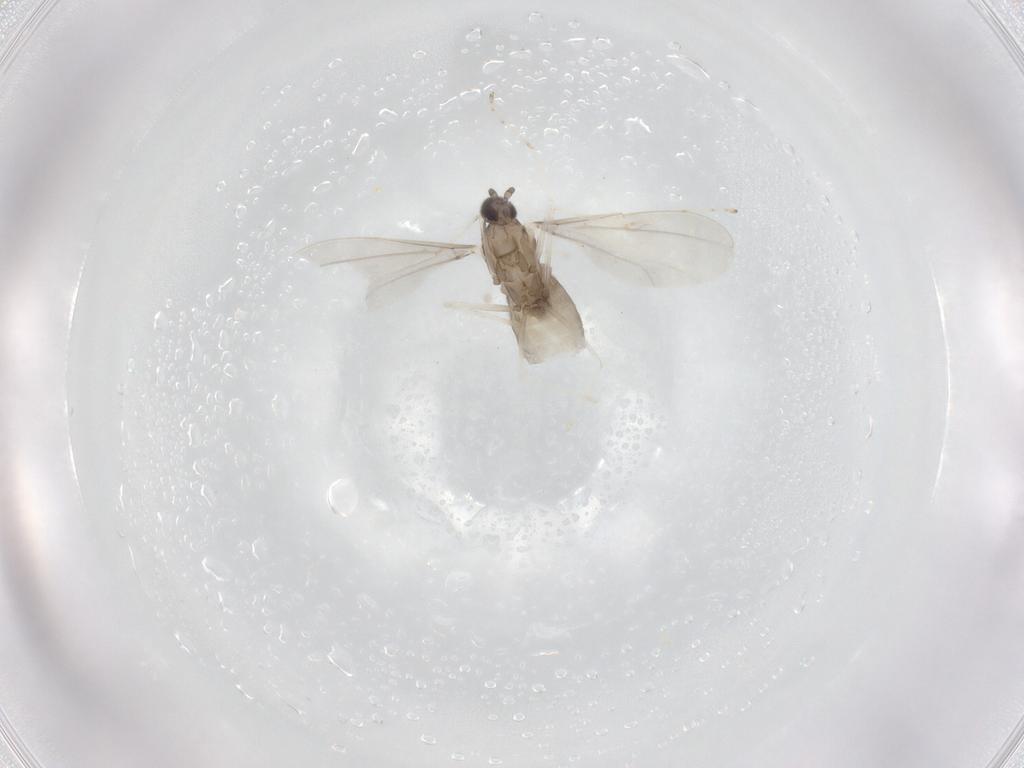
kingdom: Animalia
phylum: Arthropoda
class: Insecta
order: Diptera
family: Cecidomyiidae
